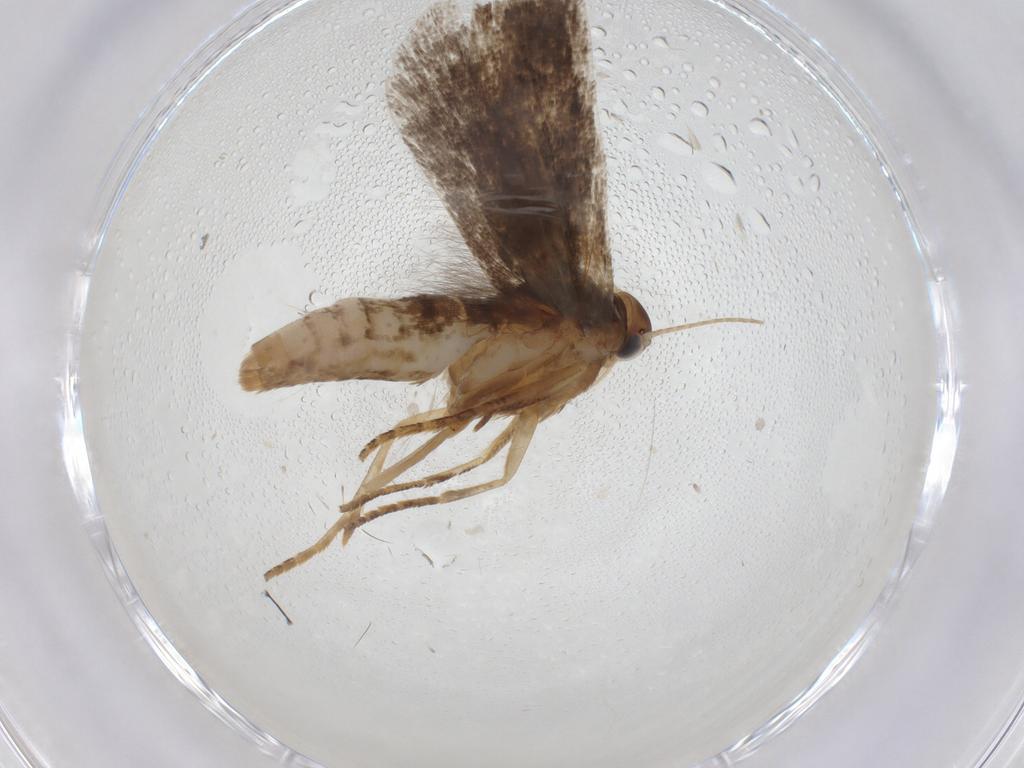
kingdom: Animalia
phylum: Arthropoda
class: Insecta
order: Lepidoptera
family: Gelechiidae
